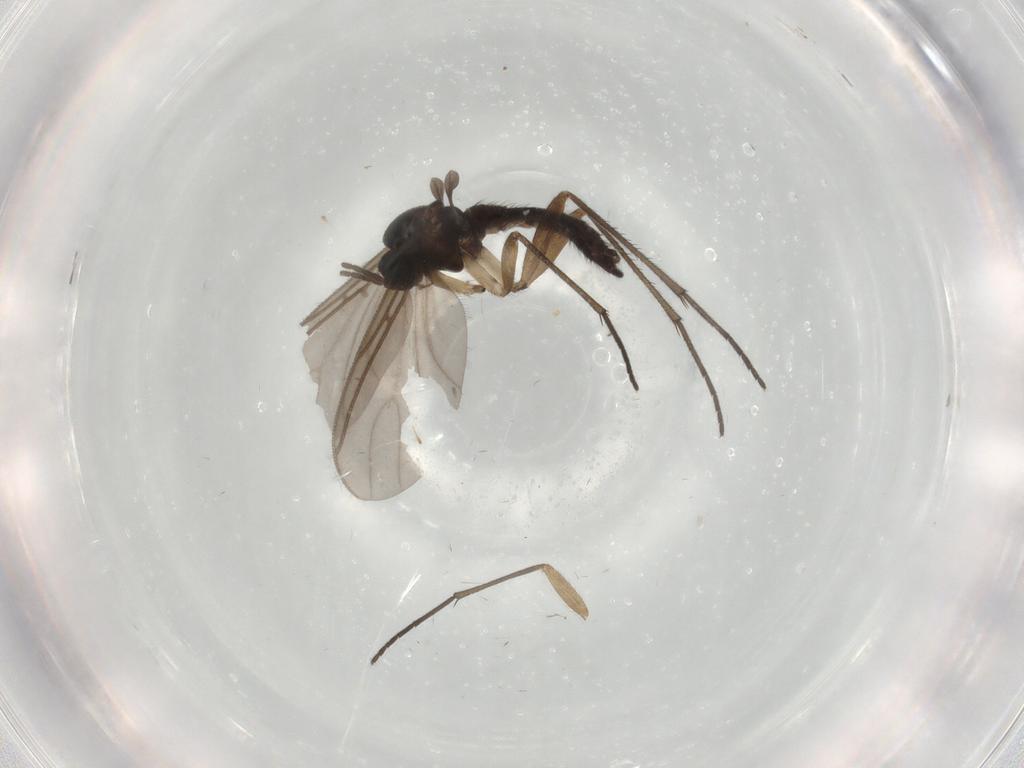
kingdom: Animalia
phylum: Arthropoda
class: Insecta
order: Diptera
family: Sciaridae
